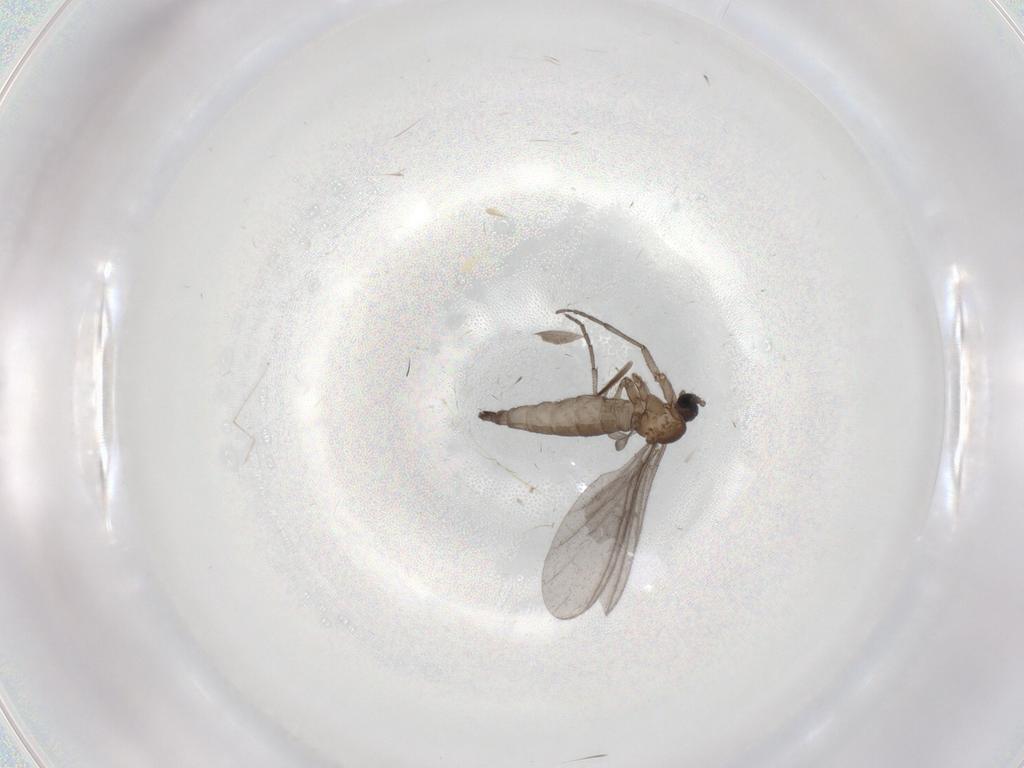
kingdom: Animalia
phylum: Arthropoda
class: Insecta
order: Diptera
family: Sciaridae
